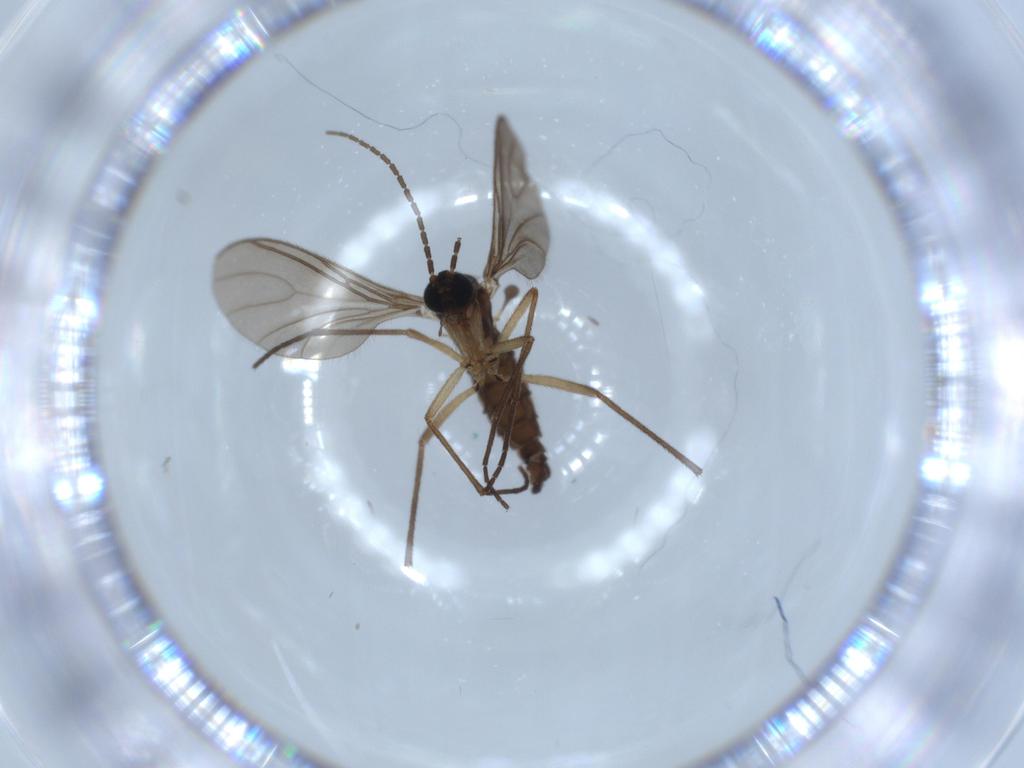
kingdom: Animalia
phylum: Arthropoda
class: Insecta
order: Diptera
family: Sciaridae
